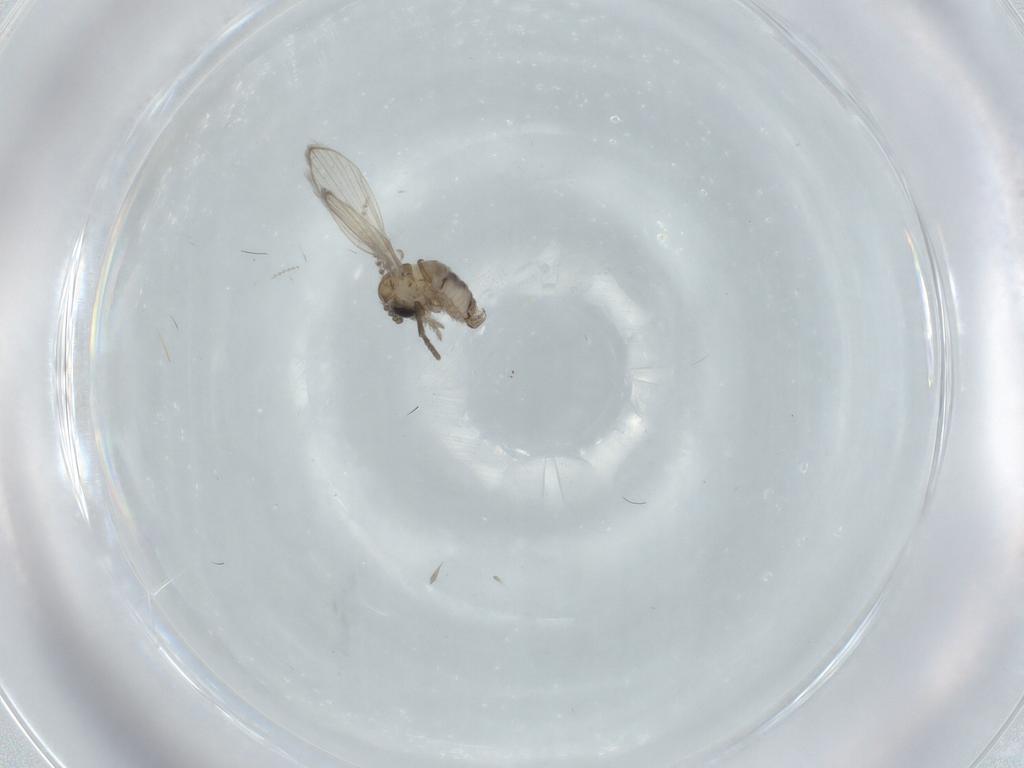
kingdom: Animalia
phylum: Arthropoda
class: Insecta
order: Diptera
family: Psychodidae
